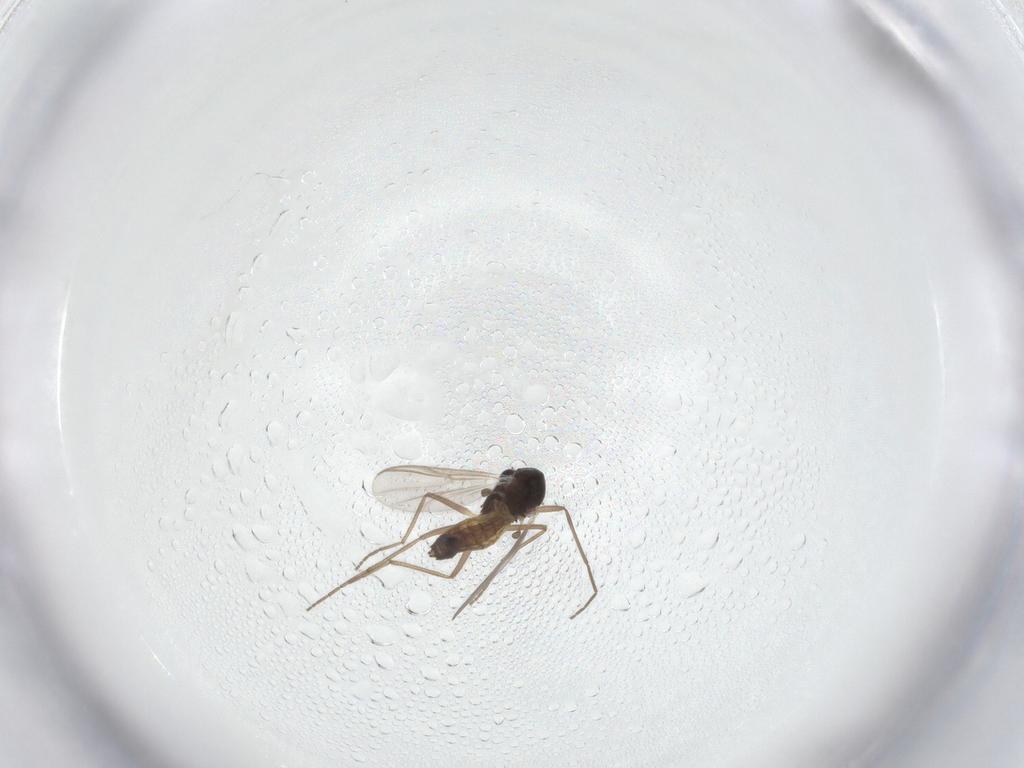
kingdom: Animalia
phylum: Arthropoda
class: Insecta
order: Diptera
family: Chironomidae
